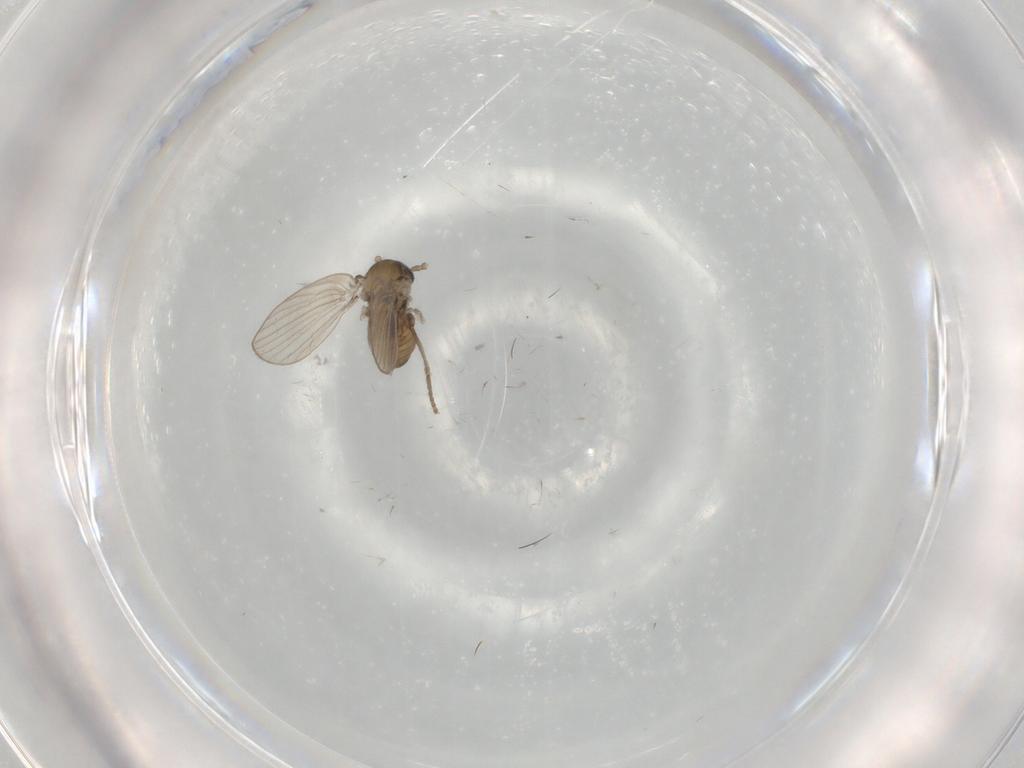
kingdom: Animalia
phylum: Arthropoda
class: Insecta
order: Diptera
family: Psychodidae
